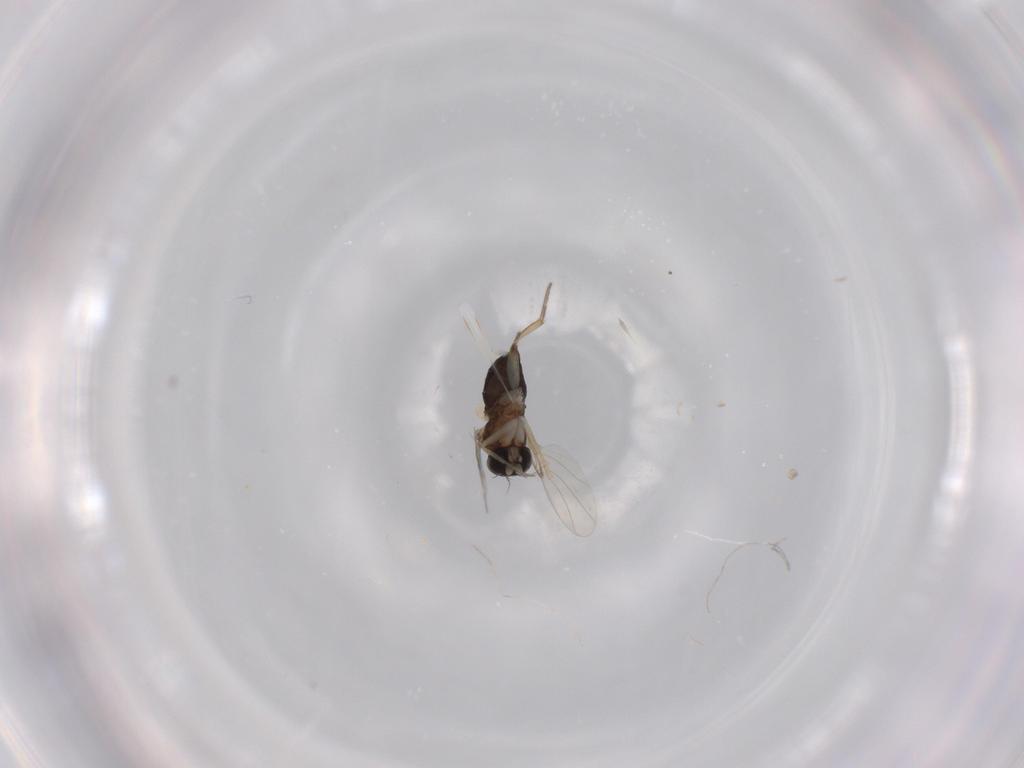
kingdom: Animalia
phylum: Arthropoda
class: Insecta
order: Diptera
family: Phoridae
